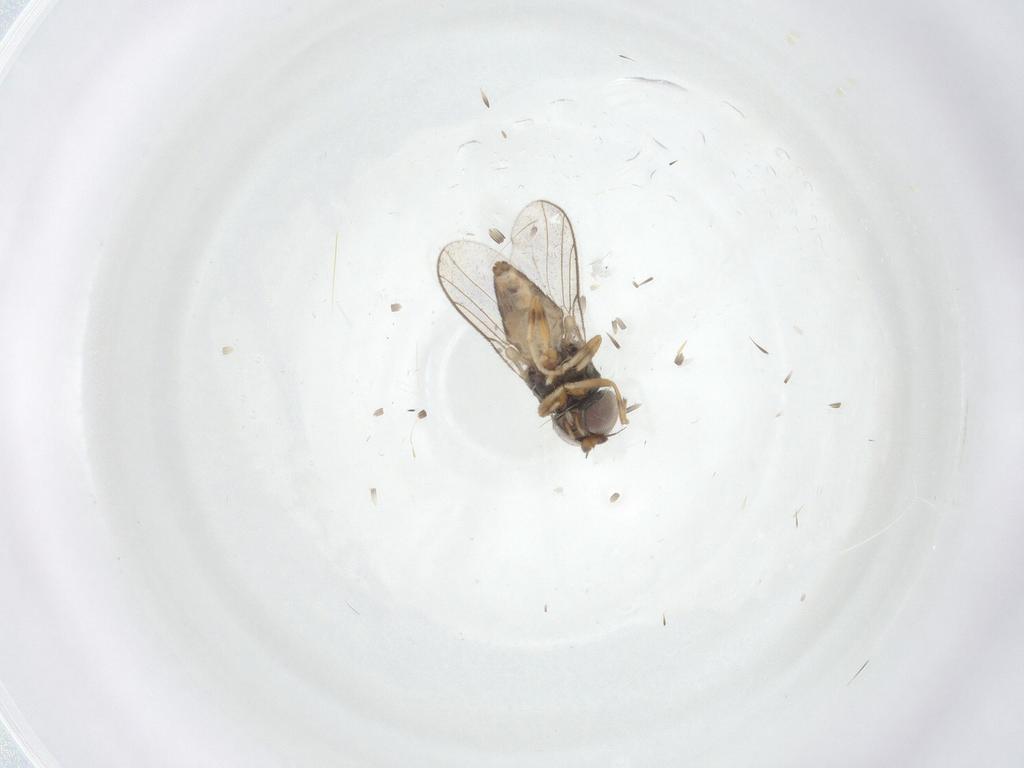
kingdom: Animalia
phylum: Arthropoda
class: Insecta
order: Diptera
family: Chloropidae
